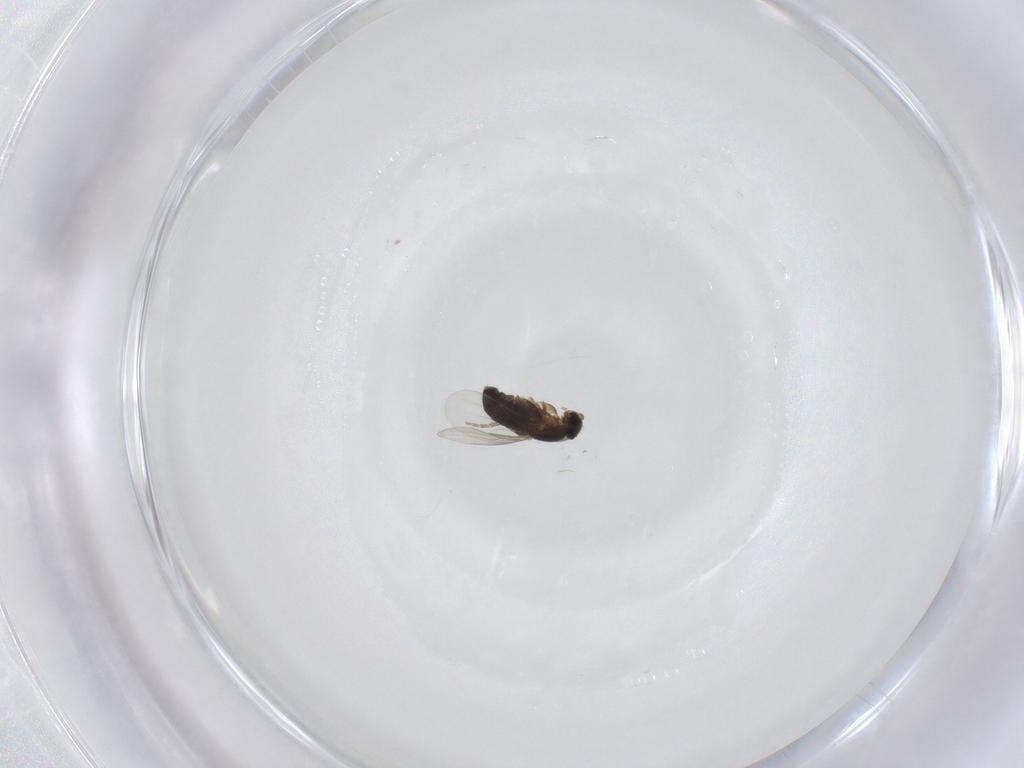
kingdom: Animalia
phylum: Arthropoda
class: Insecta
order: Diptera
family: Phoridae
